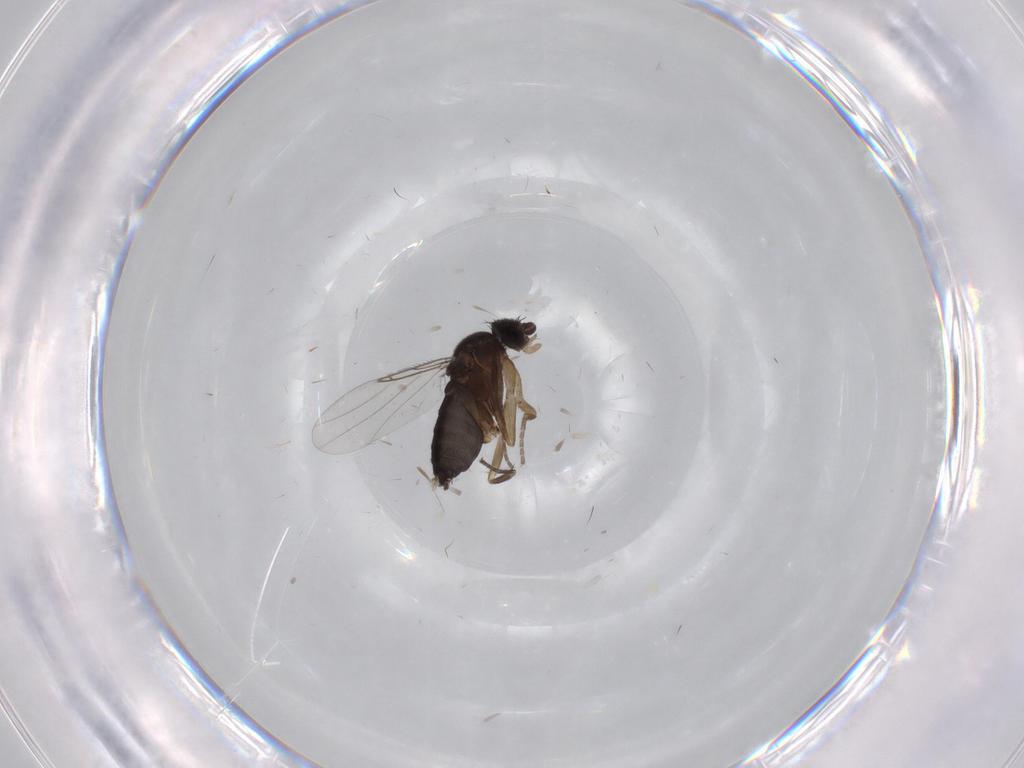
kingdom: Animalia
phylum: Arthropoda
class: Insecta
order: Diptera
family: Phoridae
